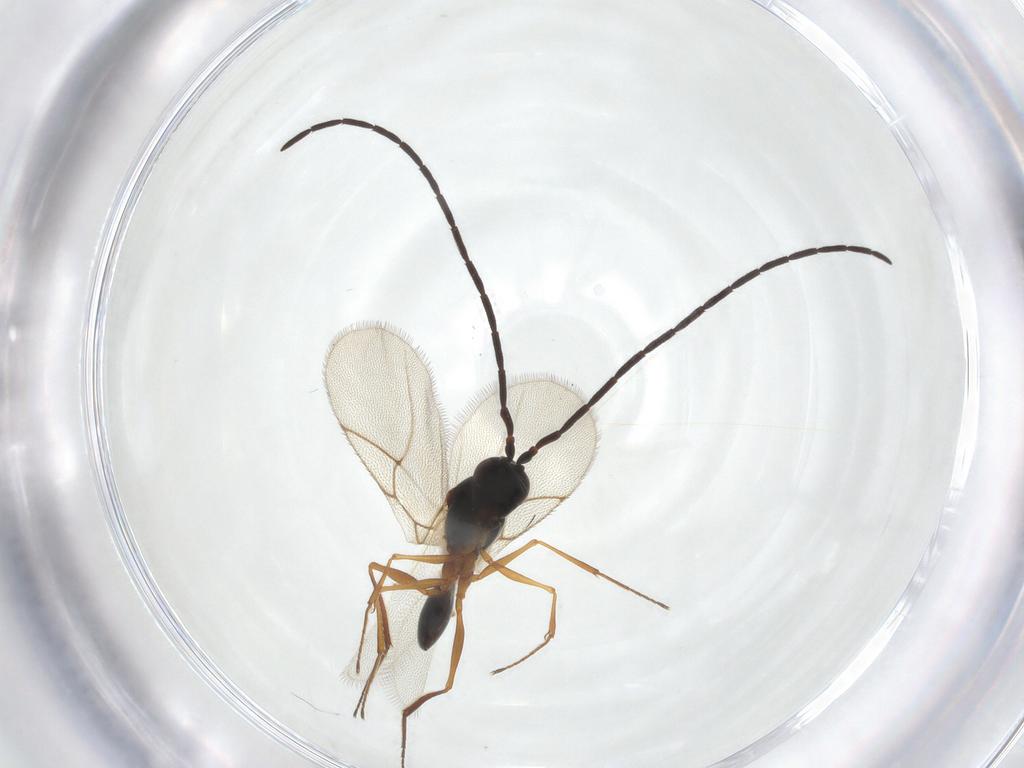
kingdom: Animalia
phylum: Arthropoda
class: Insecta
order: Hymenoptera
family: Figitidae
